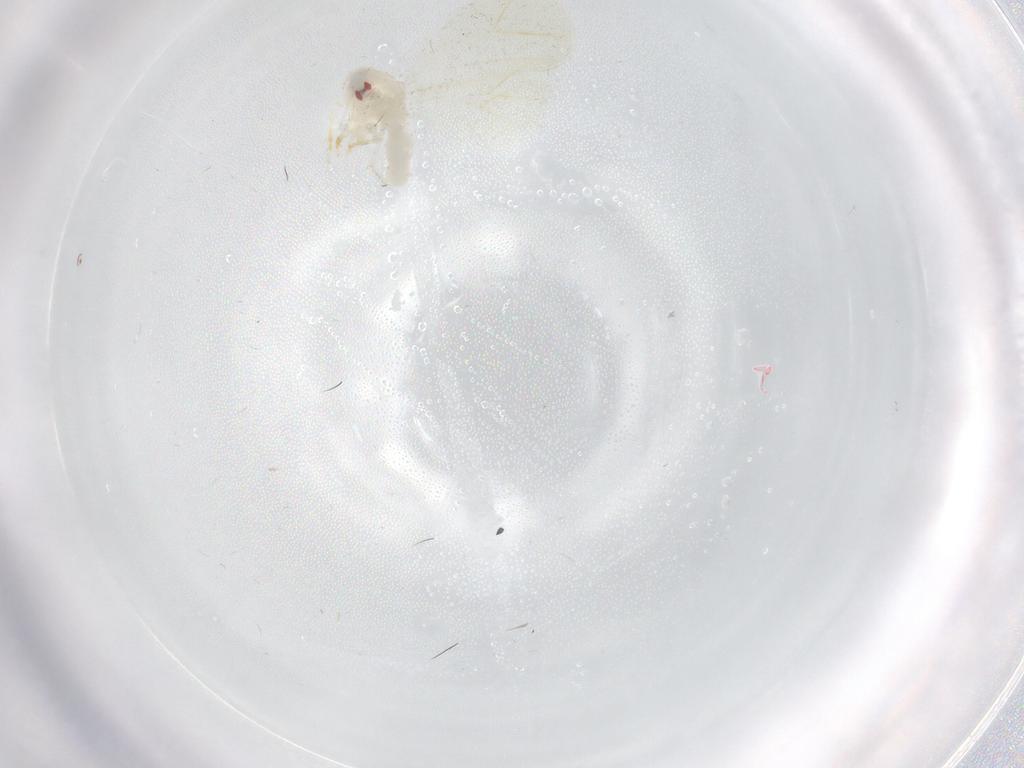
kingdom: Animalia
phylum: Arthropoda
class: Insecta
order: Hemiptera
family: Aleyrodidae
